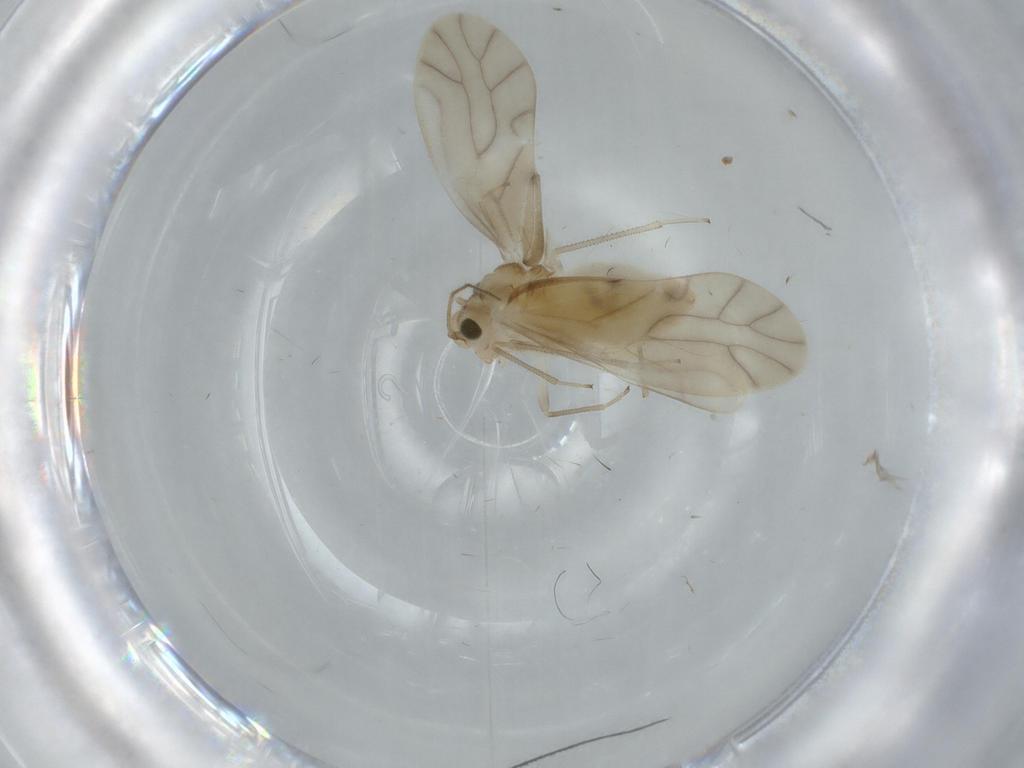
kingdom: Animalia
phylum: Arthropoda
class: Insecta
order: Psocodea
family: Caeciliusidae
